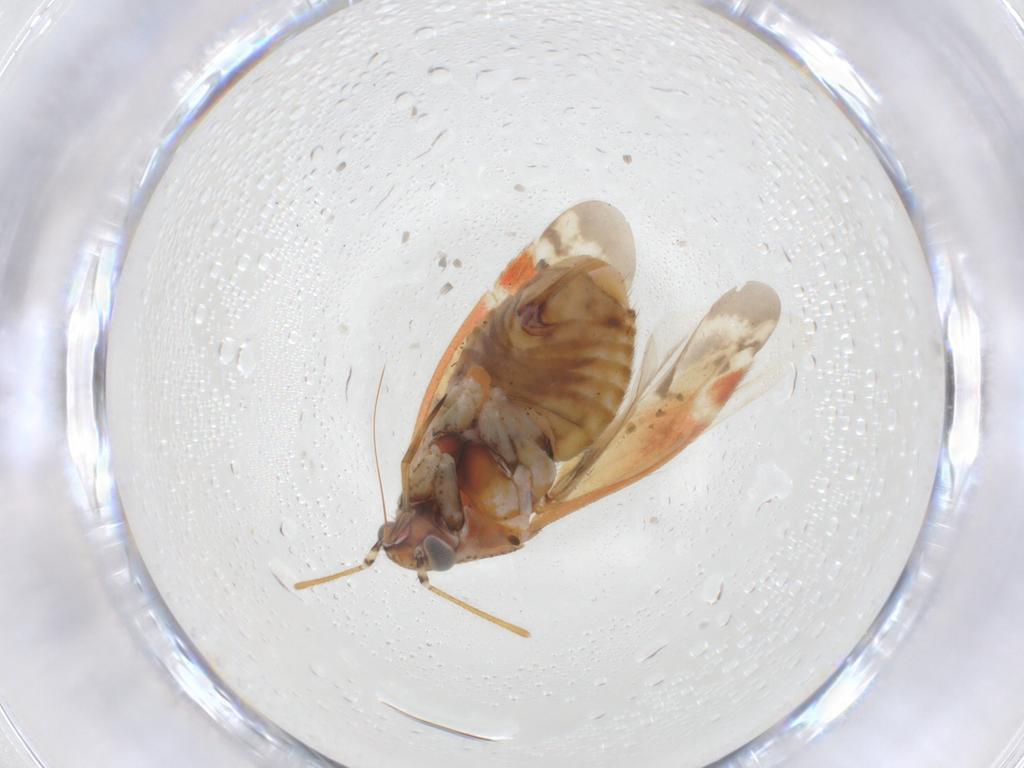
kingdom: Animalia
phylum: Arthropoda
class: Insecta
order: Hemiptera
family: Aphididae
